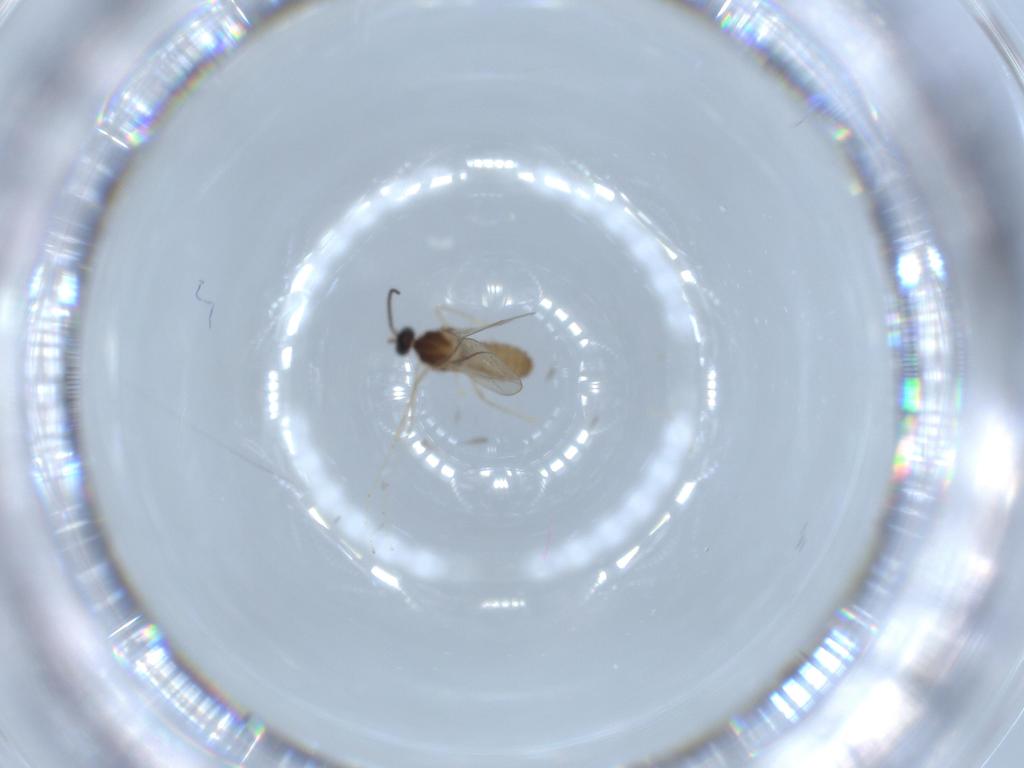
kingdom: Animalia
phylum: Arthropoda
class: Insecta
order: Diptera
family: Cecidomyiidae
